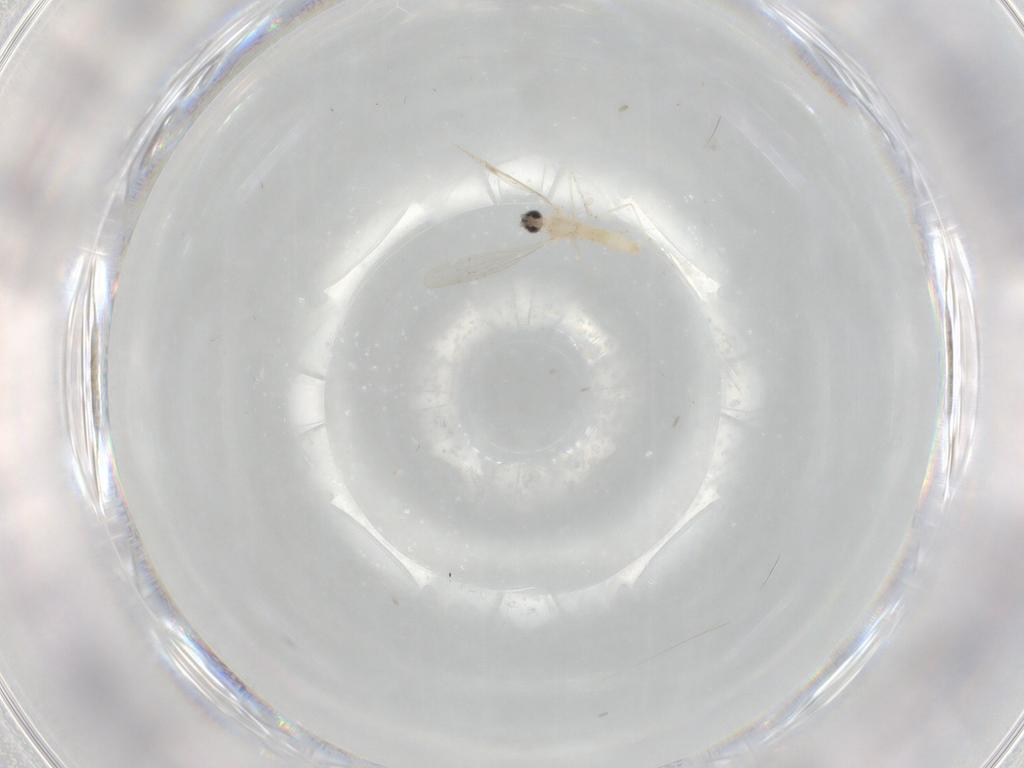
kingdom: Animalia
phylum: Arthropoda
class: Insecta
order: Diptera
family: Cecidomyiidae
